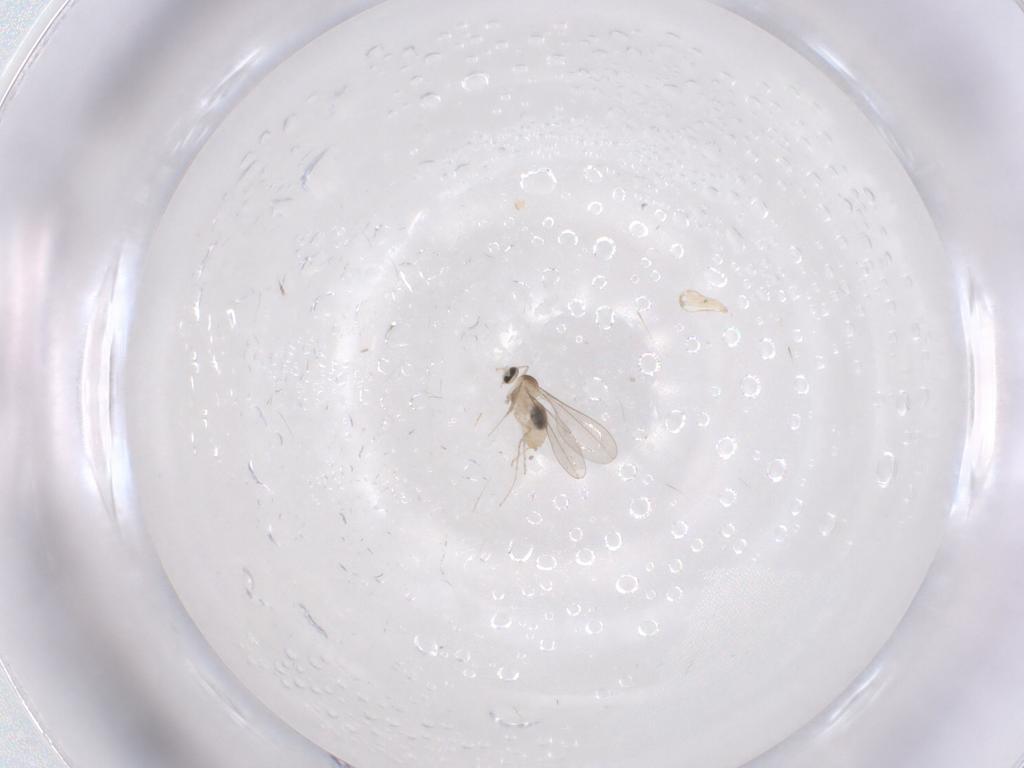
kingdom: Animalia
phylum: Arthropoda
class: Insecta
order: Diptera
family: Cecidomyiidae
